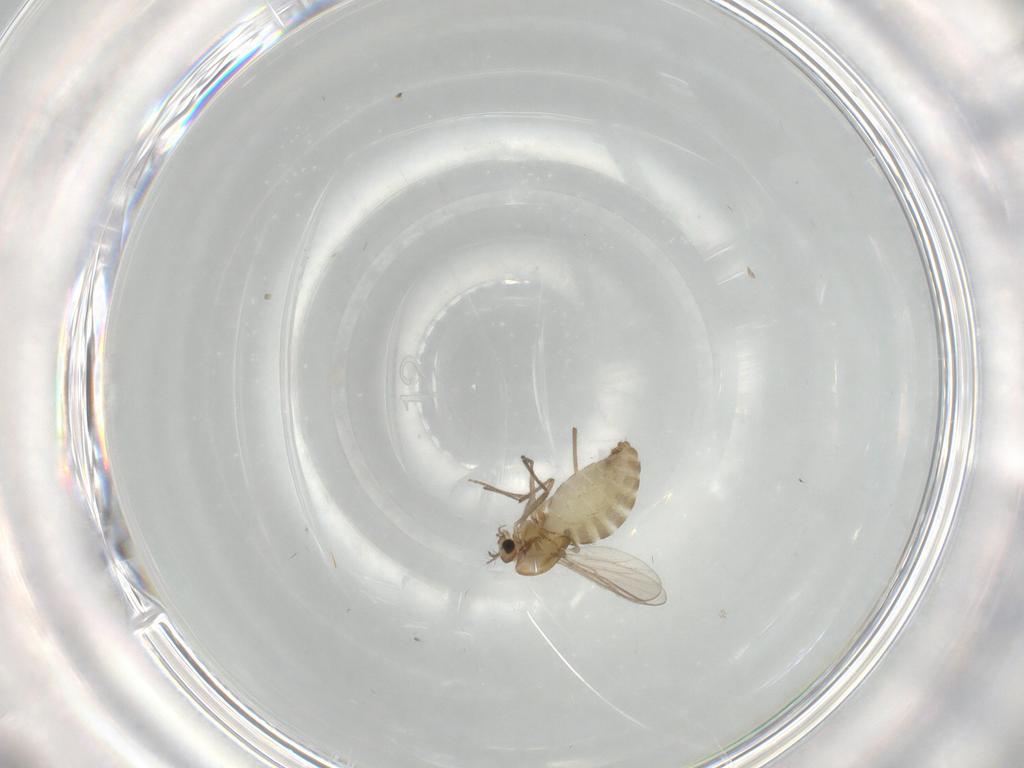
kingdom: Animalia
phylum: Arthropoda
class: Insecta
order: Diptera
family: Chironomidae
